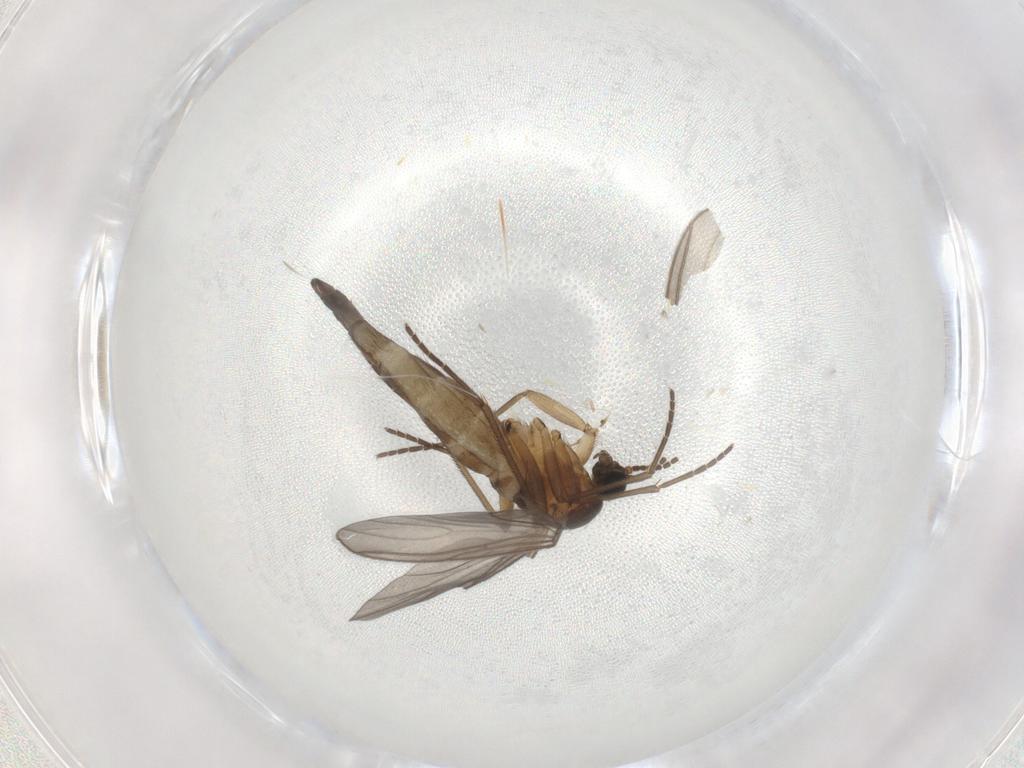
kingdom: Animalia
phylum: Arthropoda
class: Insecta
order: Diptera
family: Sciaridae
